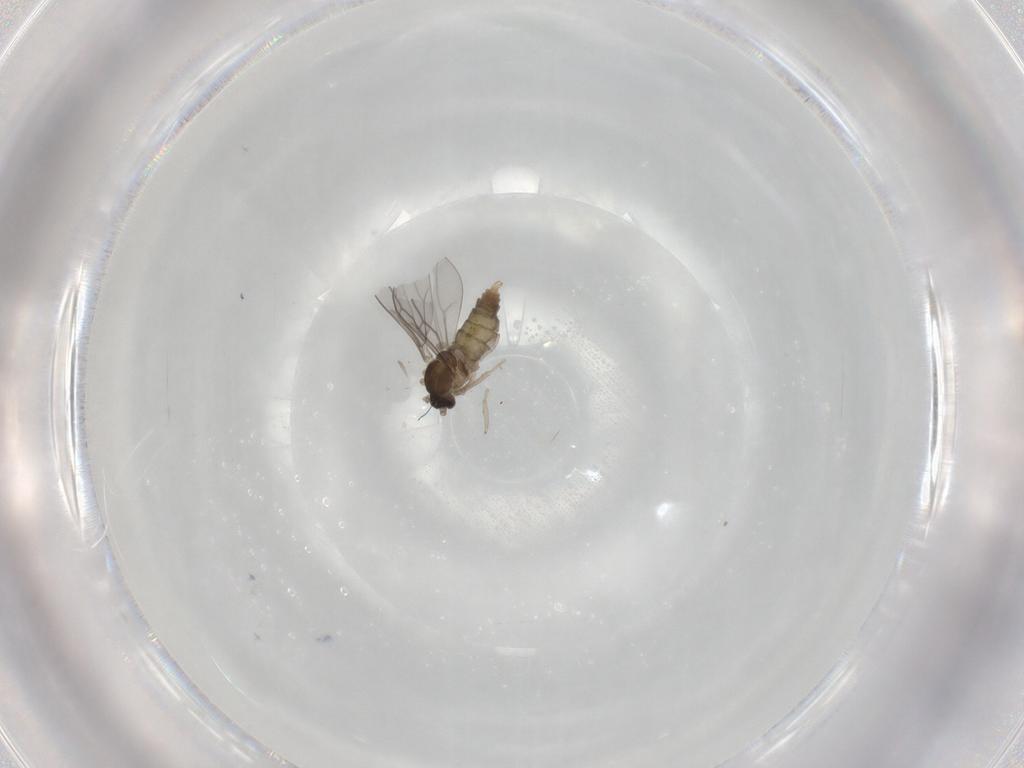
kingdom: Animalia
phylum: Arthropoda
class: Insecta
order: Diptera
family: Cecidomyiidae
